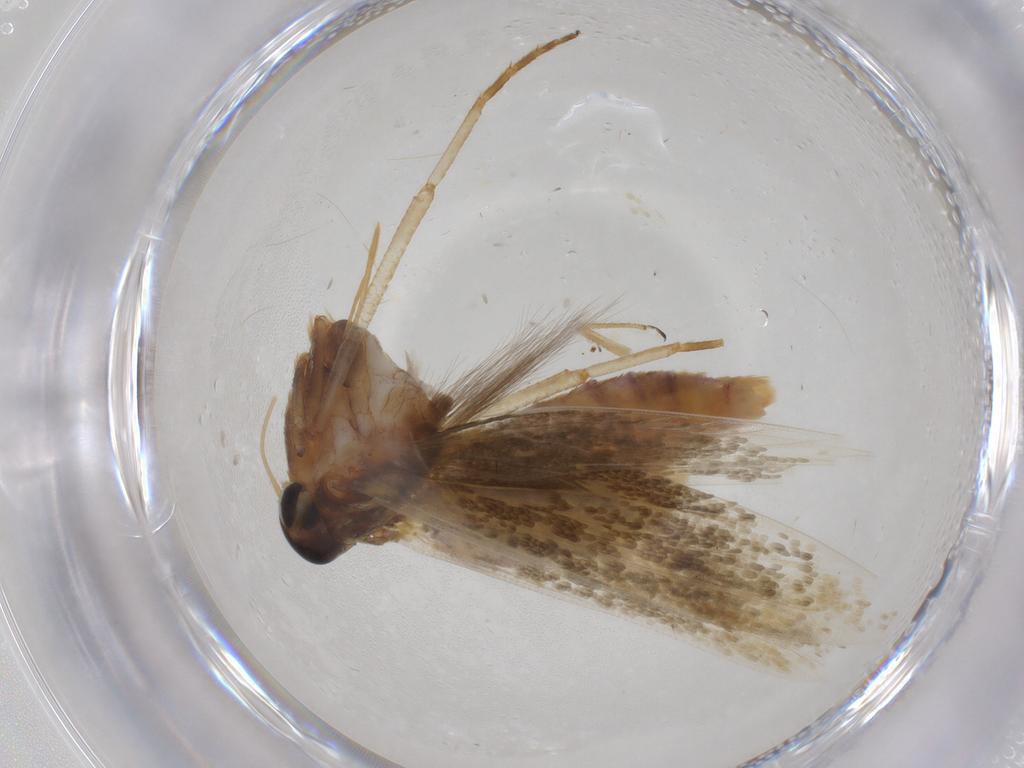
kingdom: Animalia
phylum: Arthropoda
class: Insecta
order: Lepidoptera
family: Stathmopodidae
